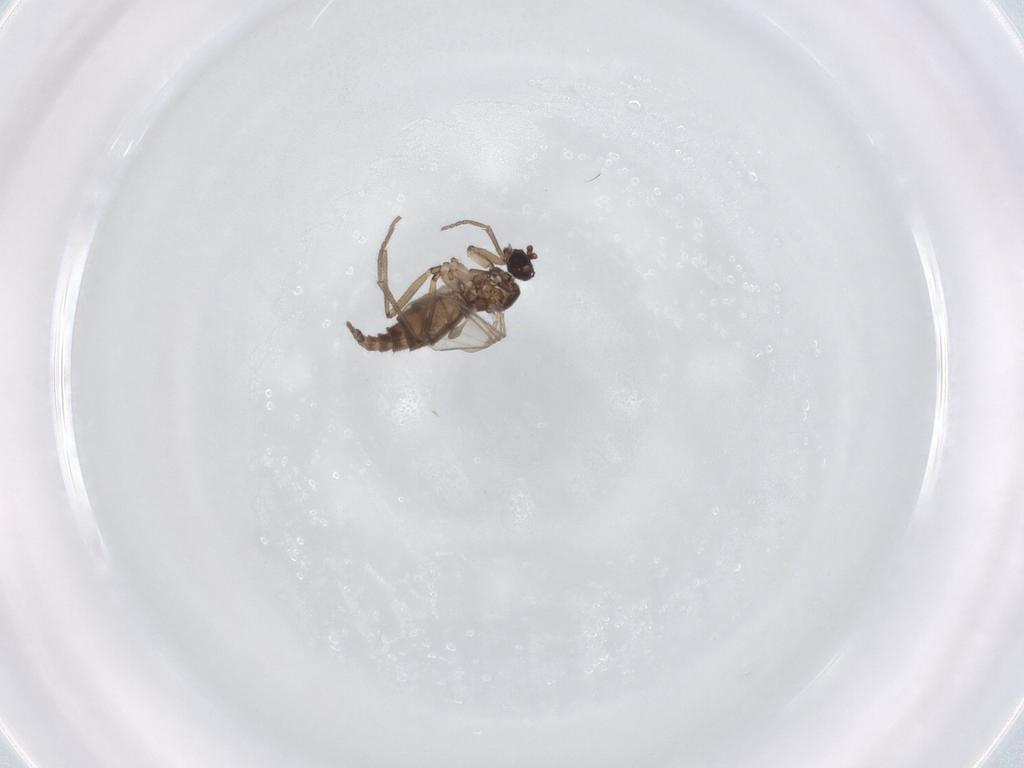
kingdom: Animalia
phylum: Arthropoda
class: Insecta
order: Diptera
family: Sciaridae
